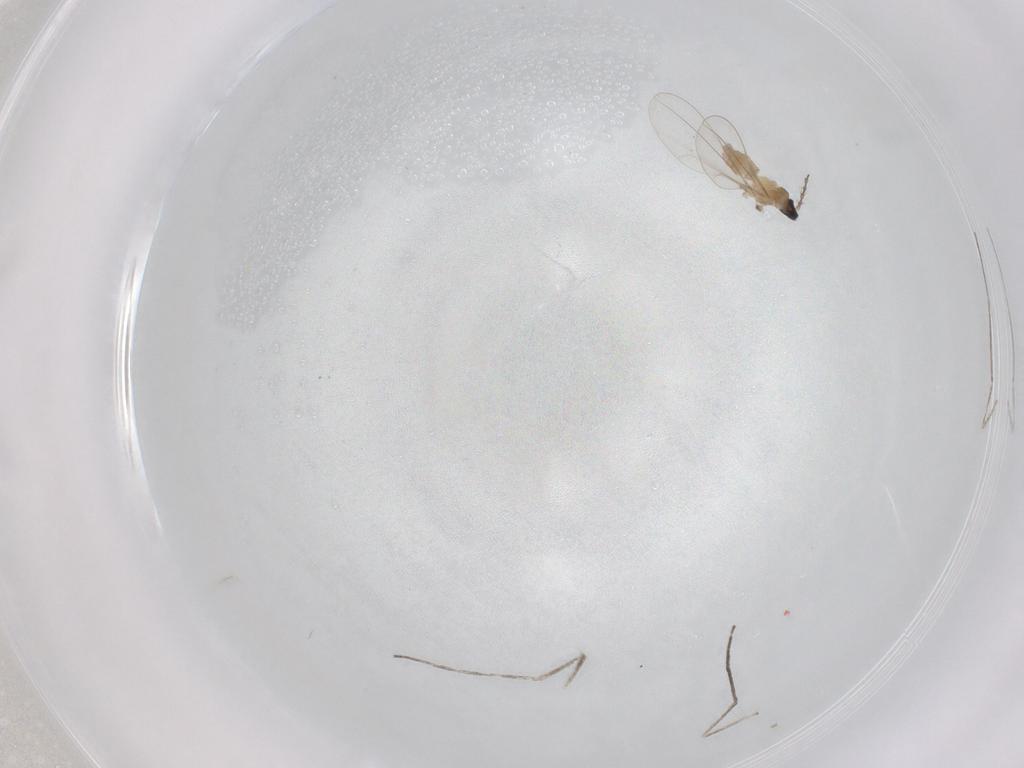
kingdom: Animalia
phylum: Arthropoda
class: Insecta
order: Diptera
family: Cecidomyiidae
